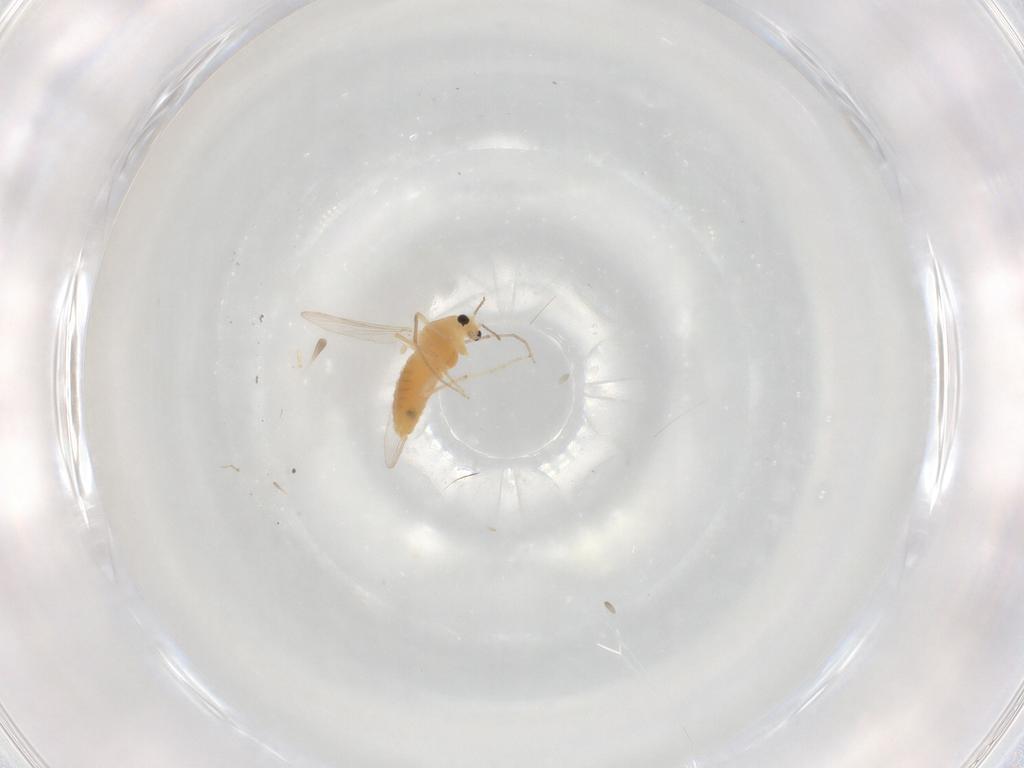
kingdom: Animalia
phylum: Arthropoda
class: Insecta
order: Diptera
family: Chironomidae
